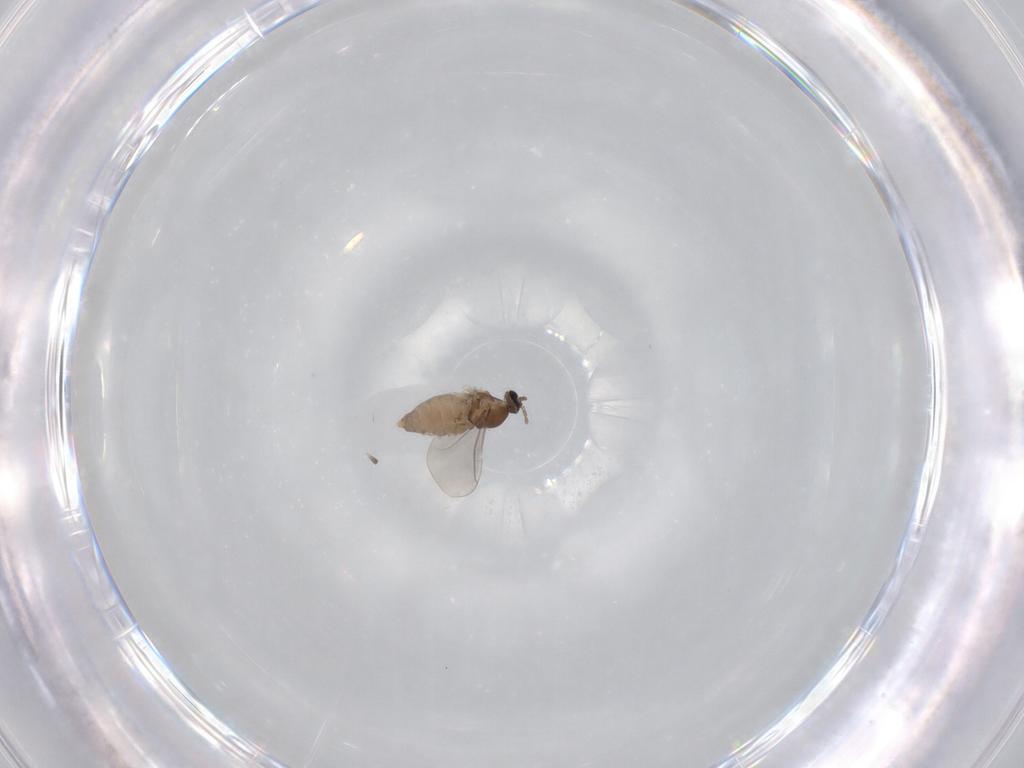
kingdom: Animalia
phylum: Arthropoda
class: Insecta
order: Diptera
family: Cecidomyiidae
